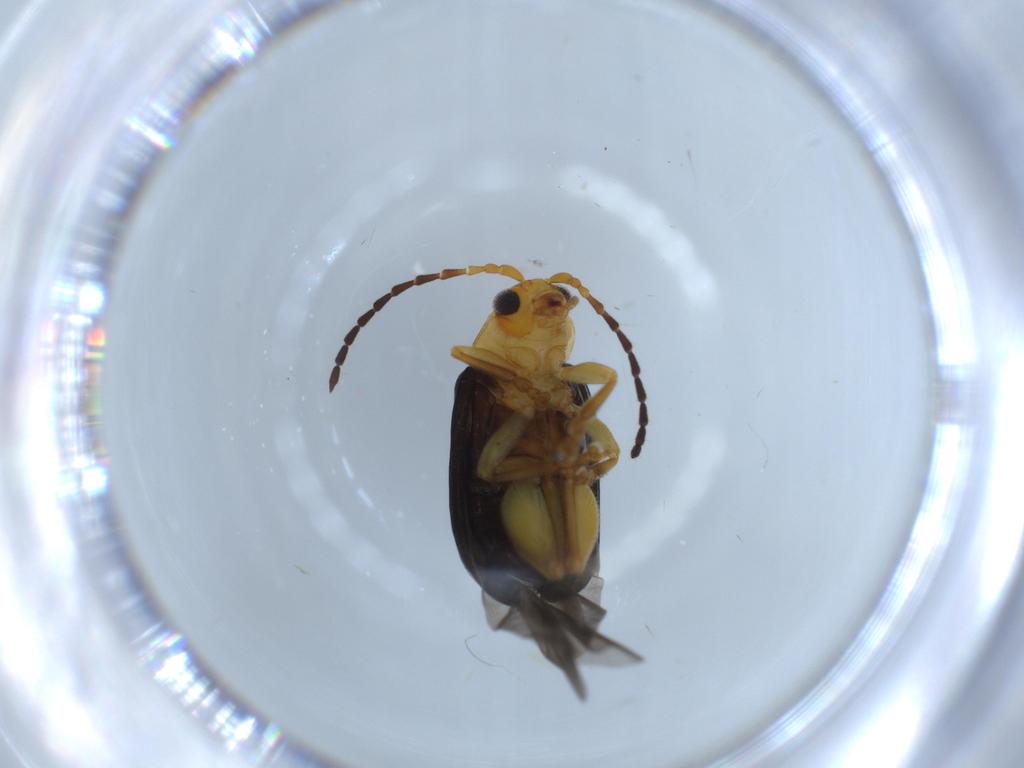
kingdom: Animalia
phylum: Arthropoda
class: Insecta
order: Coleoptera
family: Chrysomelidae
